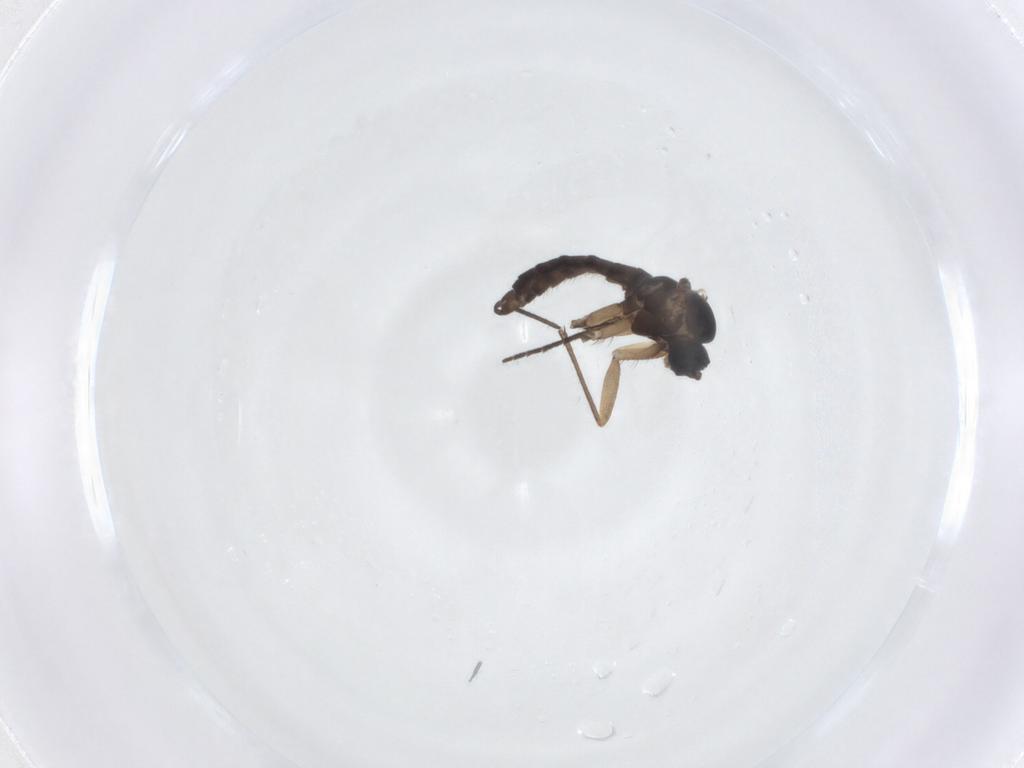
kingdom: Animalia
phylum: Arthropoda
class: Insecta
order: Diptera
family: Sciaridae
